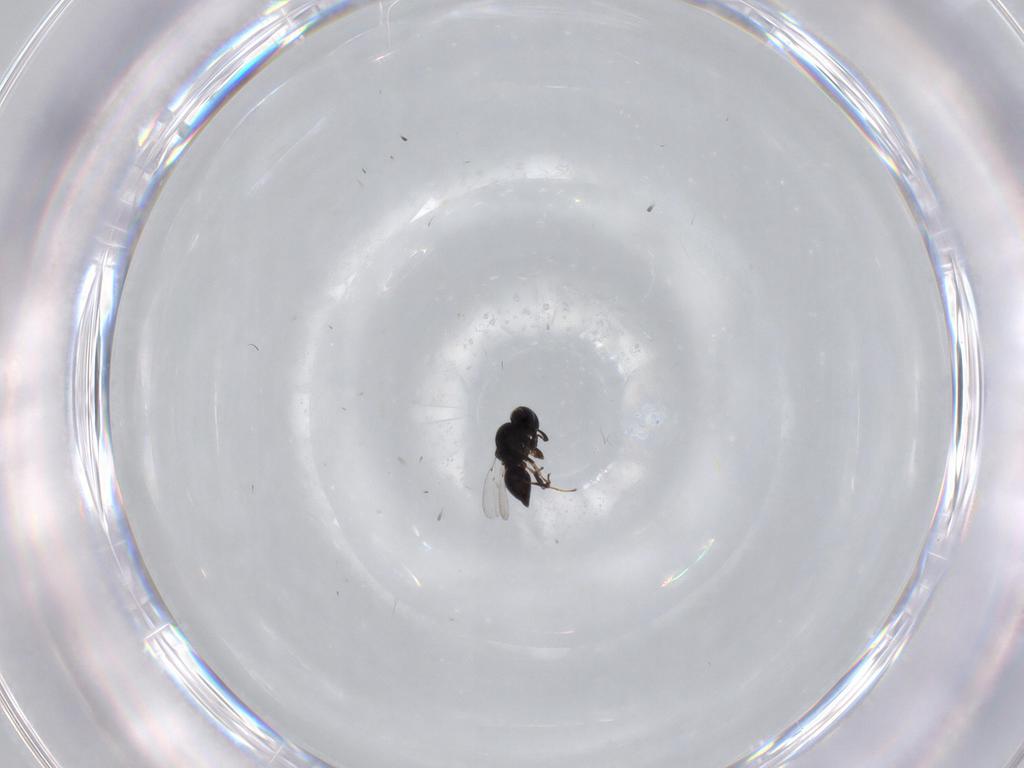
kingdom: Animalia
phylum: Arthropoda
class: Insecta
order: Hymenoptera
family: Platygastridae
